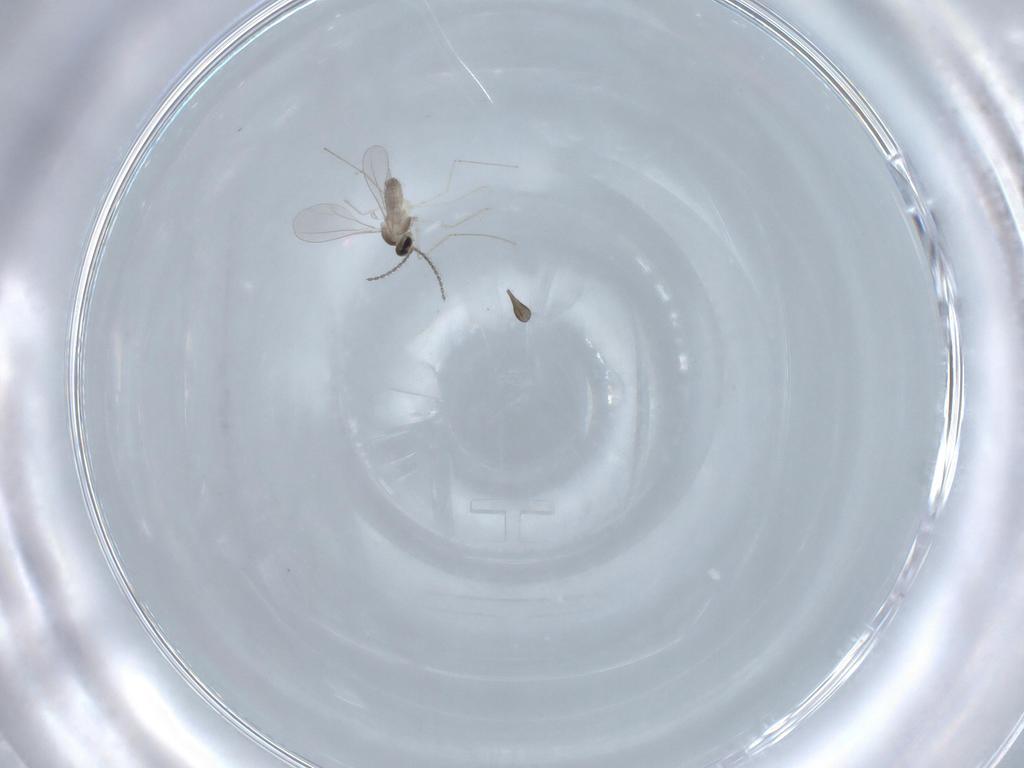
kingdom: Animalia
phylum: Arthropoda
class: Insecta
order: Diptera
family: Sciaridae
